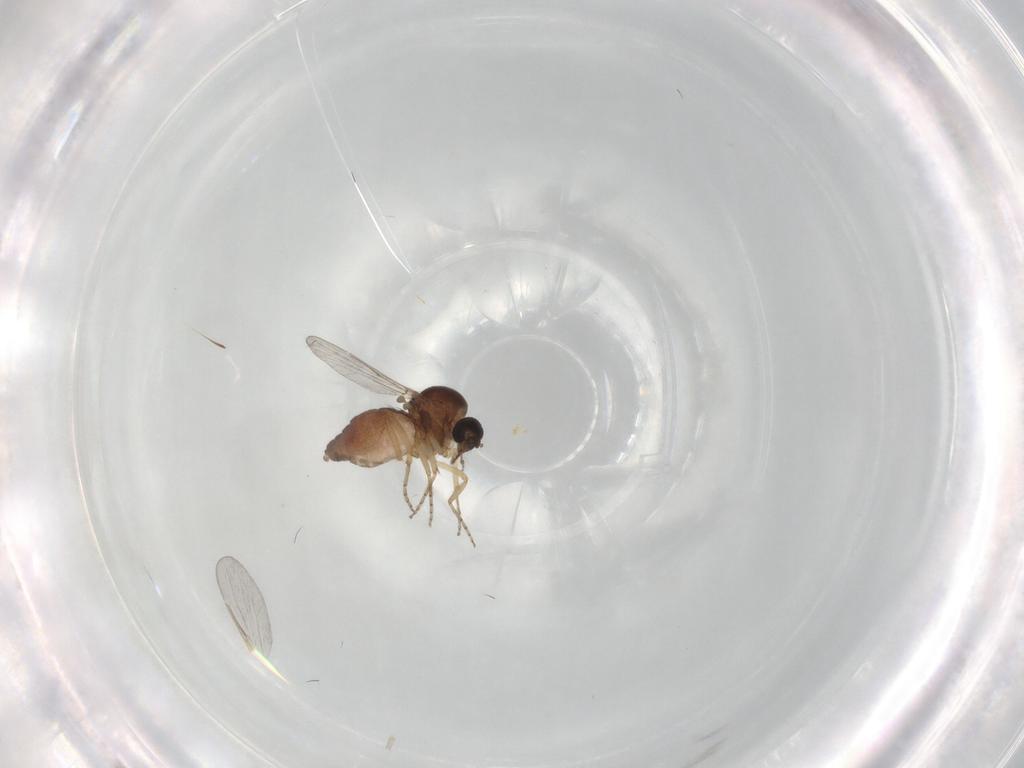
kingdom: Animalia
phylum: Arthropoda
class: Insecta
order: Diptera
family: Ceratopogonidae
